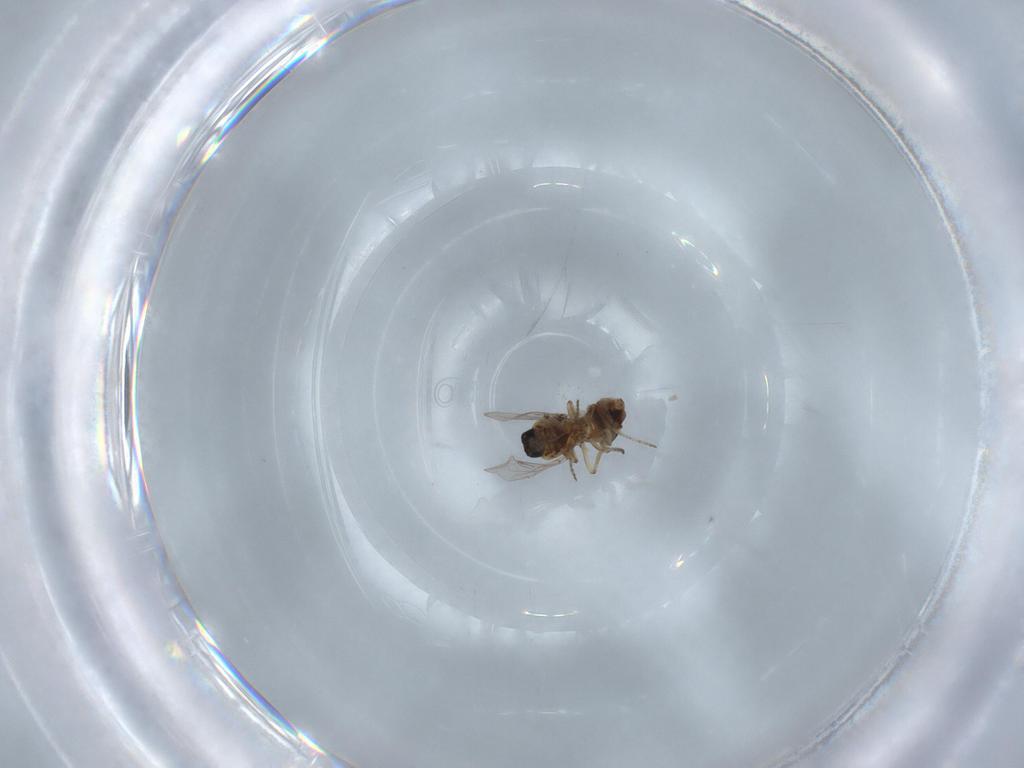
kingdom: Animalia
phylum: Arthropoda
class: Insecta
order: Diptera
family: Ceratopogonidae
